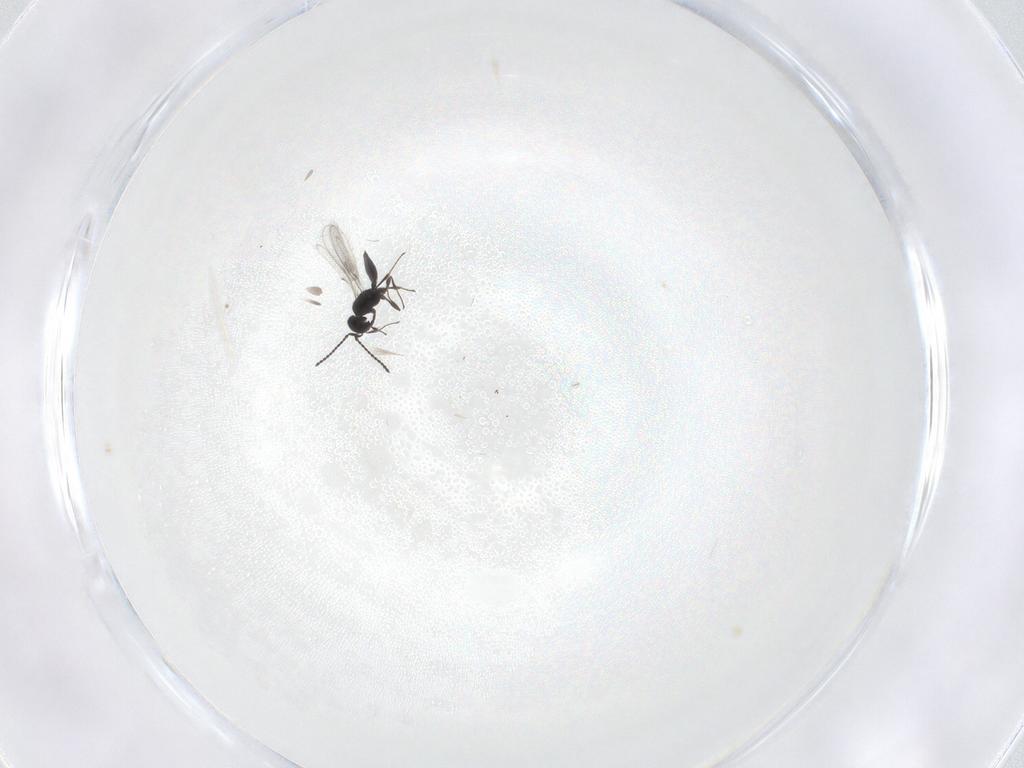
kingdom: Animalia
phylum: Arthropoda
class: Insecta
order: Hymenoptera
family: Scelionidae
